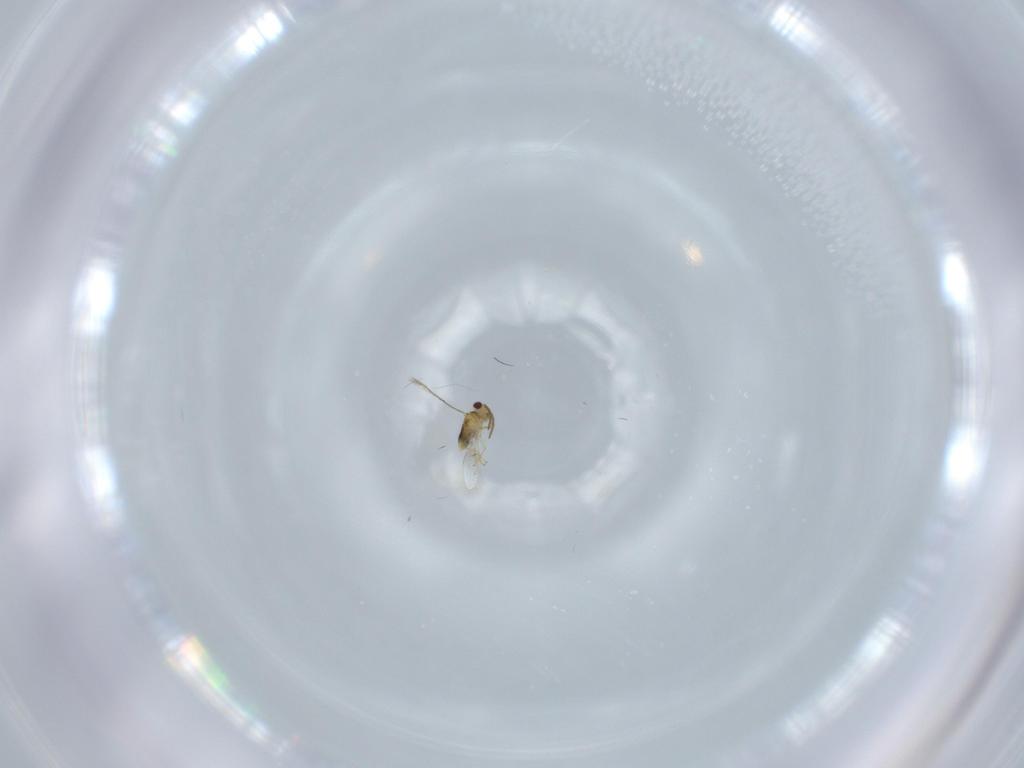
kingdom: Animalia
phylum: Arthropoda
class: Insecta
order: Hymenoptera
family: Aphelinidae
